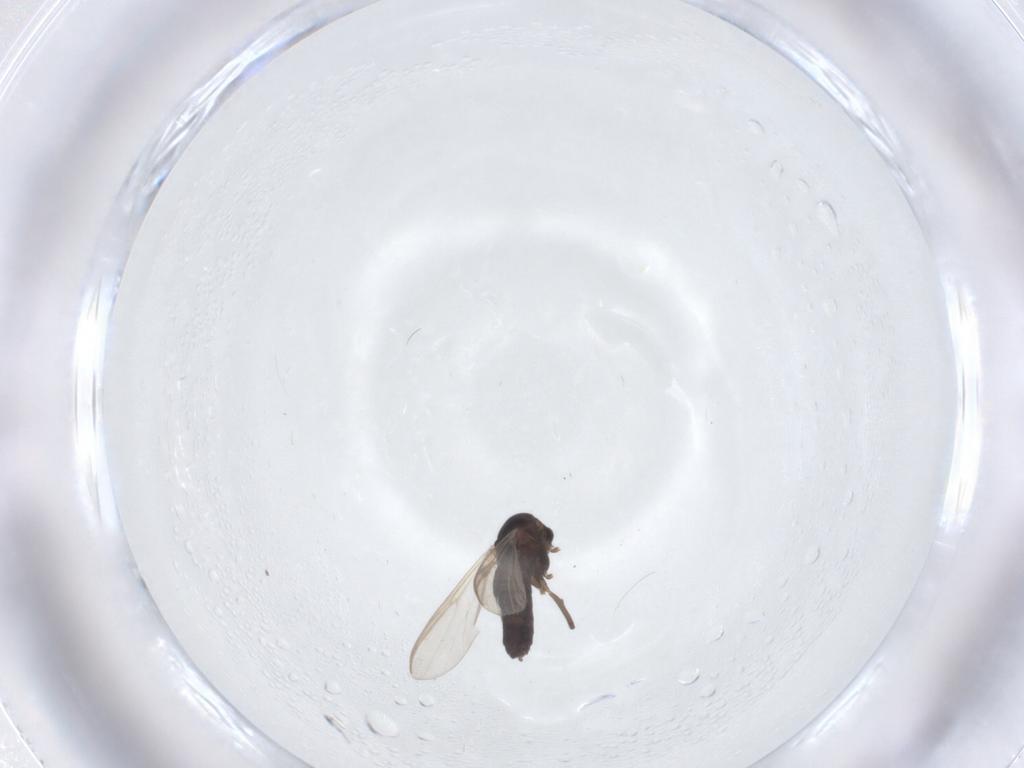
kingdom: Animalia
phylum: Arthropoda
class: Insecta
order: Diptera
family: Chironomidae
